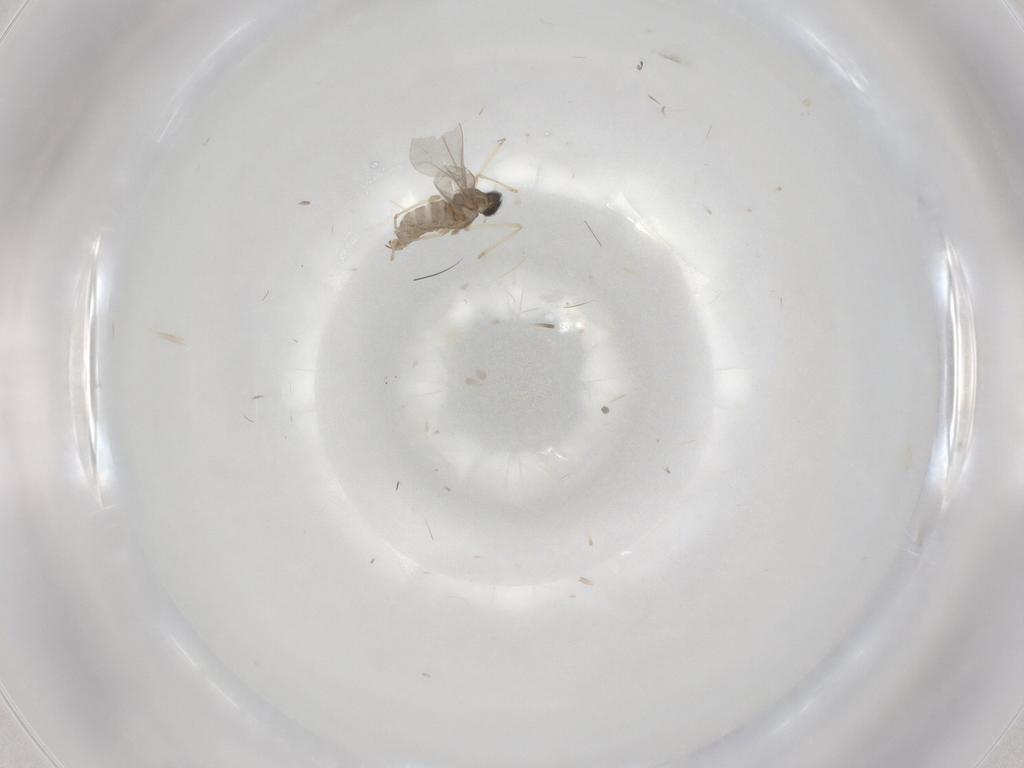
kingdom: Animalia
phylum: Arthropoda
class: Insecta
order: Diptera
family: Cecidomyiidae
